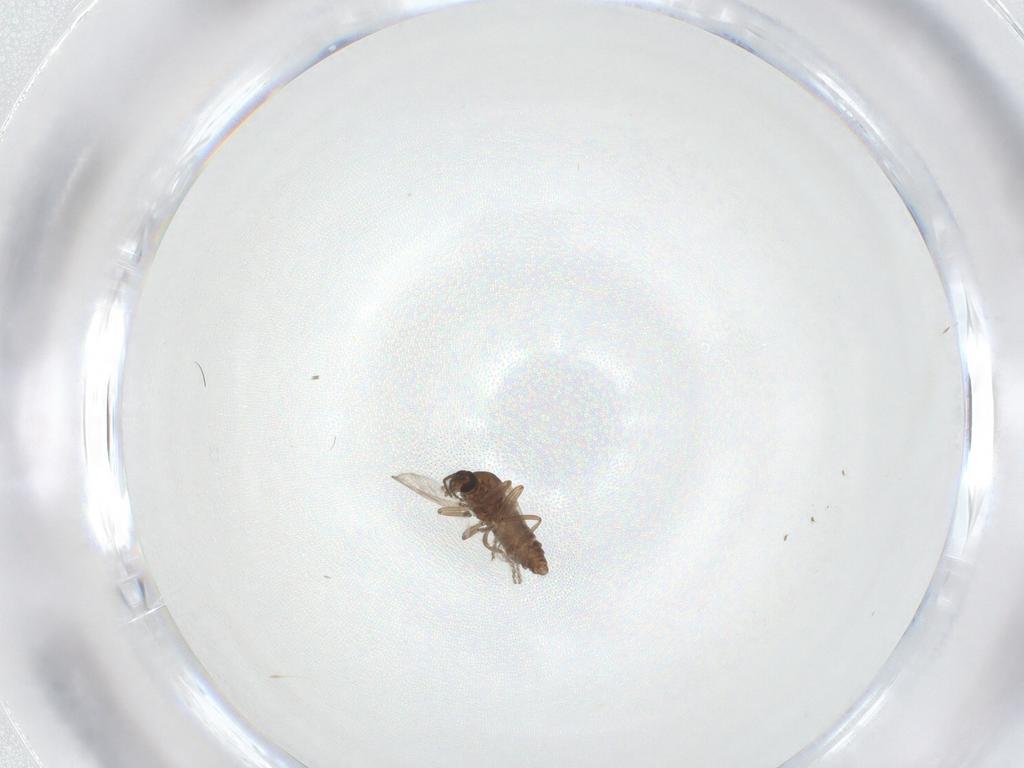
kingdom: Animalia
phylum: Arthropoda
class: Insecta
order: Diptera
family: Ceratopogonidae
